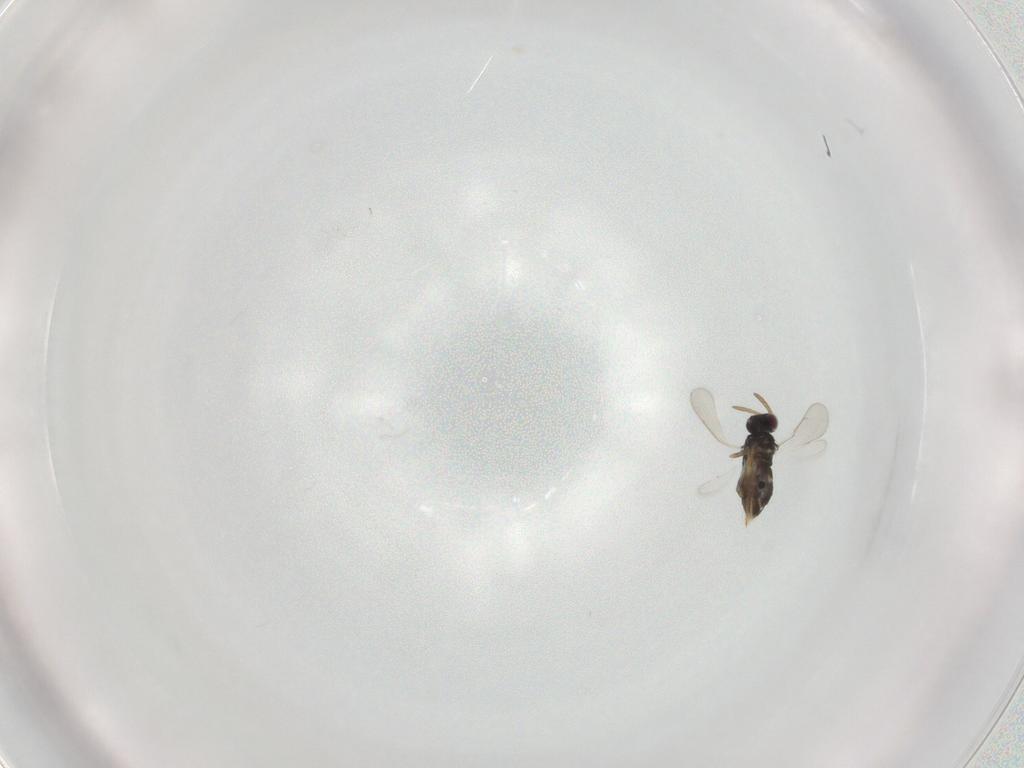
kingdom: Animalia
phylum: Arthropoda
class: Insecta
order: Hymenoptera
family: Aphelinidae
